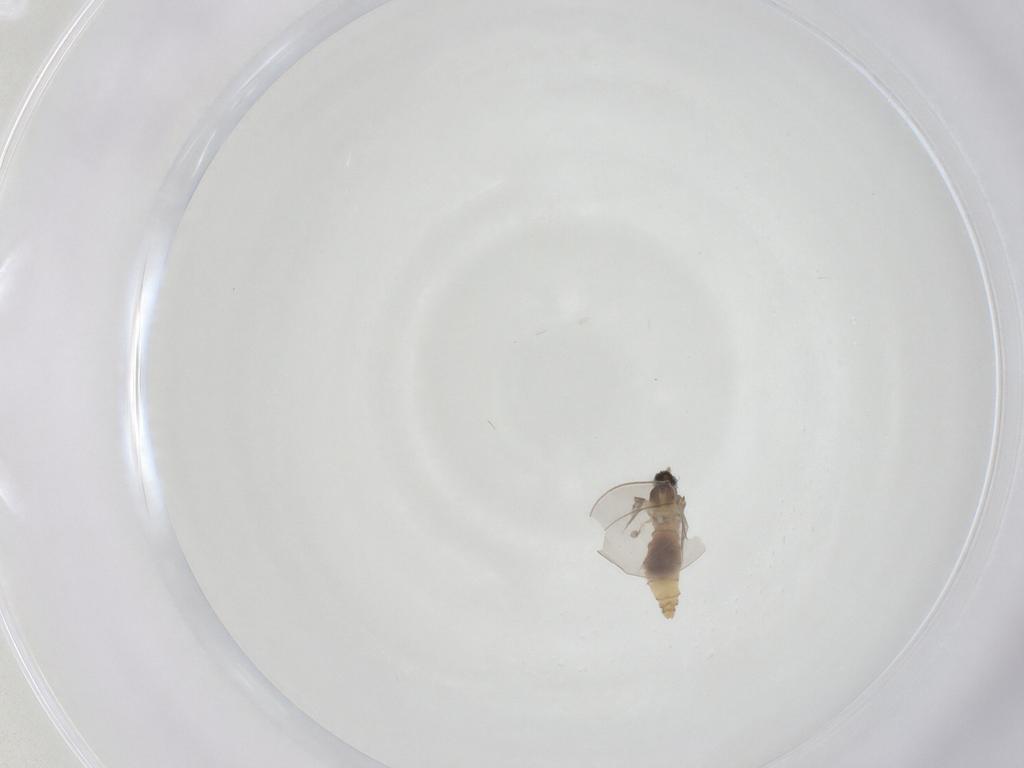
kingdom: Animalia
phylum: Arthropoda
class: Insecta
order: Diptera
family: Cecidomyiidae
